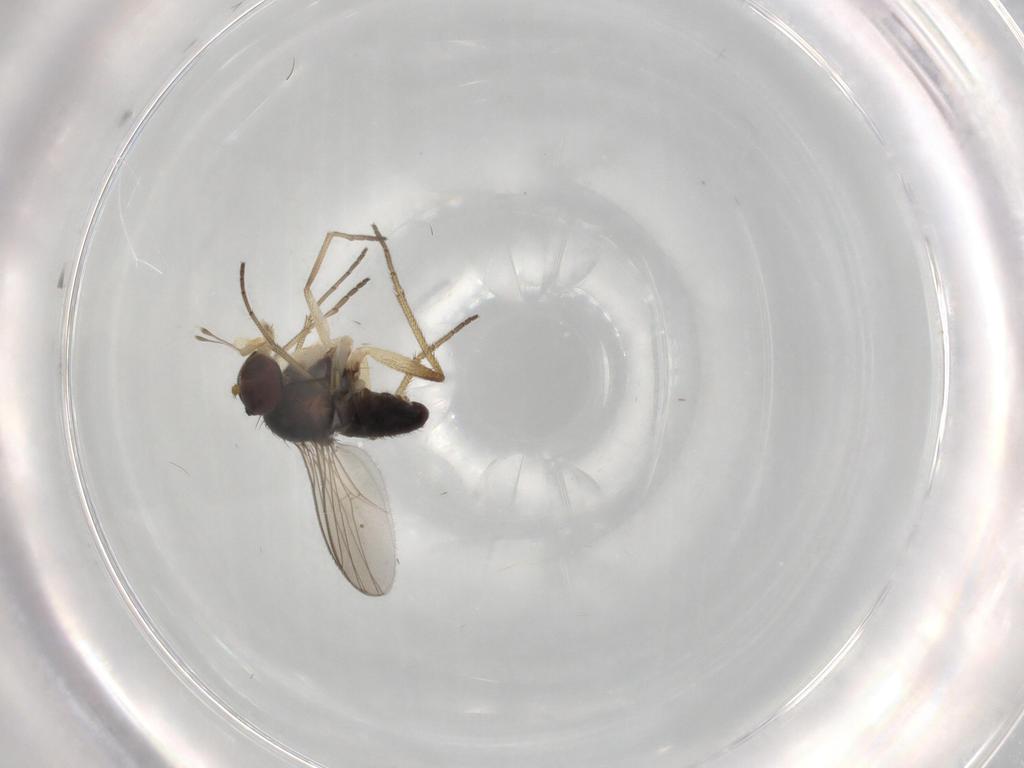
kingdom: Animalia
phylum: Arthropoda
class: Insecta
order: Diptera
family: Dolichopodidae
